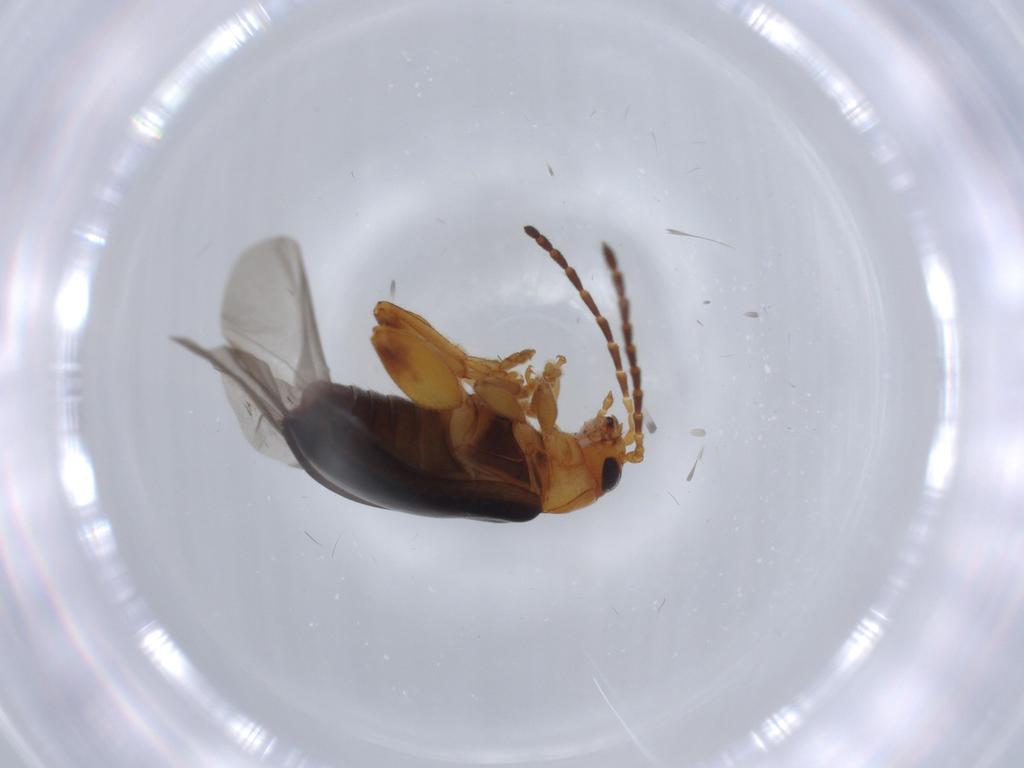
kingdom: Animalia
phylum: Arthropoda
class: Insecta
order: Coleoptera
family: Chrysomelidae
